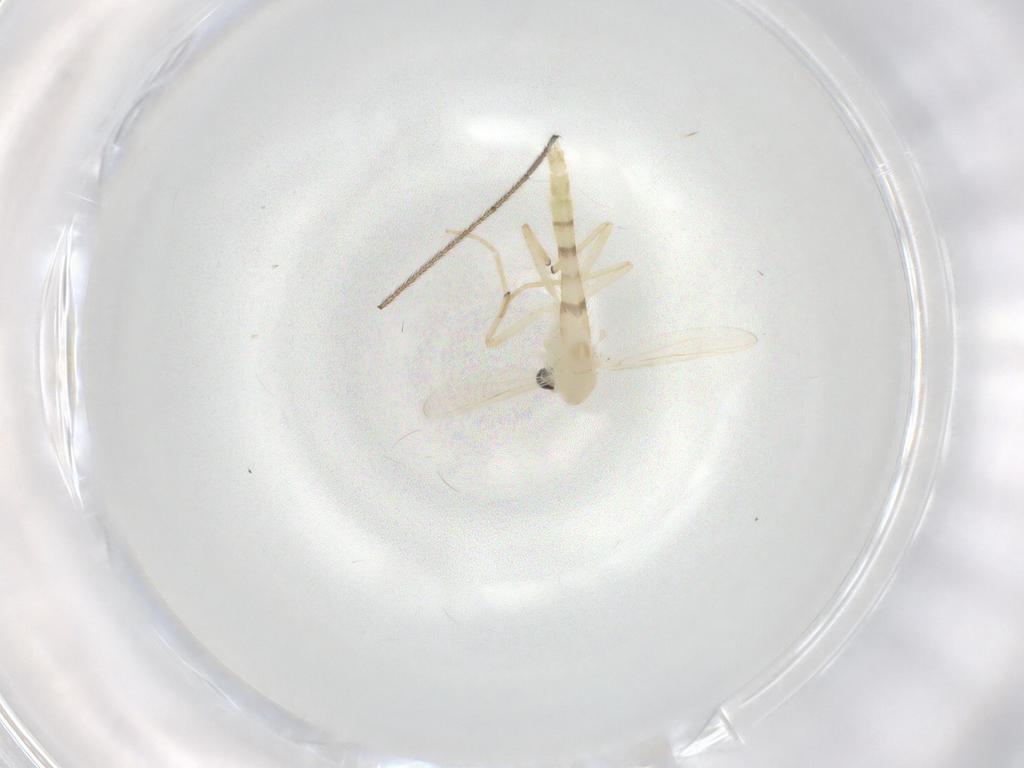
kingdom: Animalia
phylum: Arthropoda
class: Insecta
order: Diptera
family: Chironomidae
